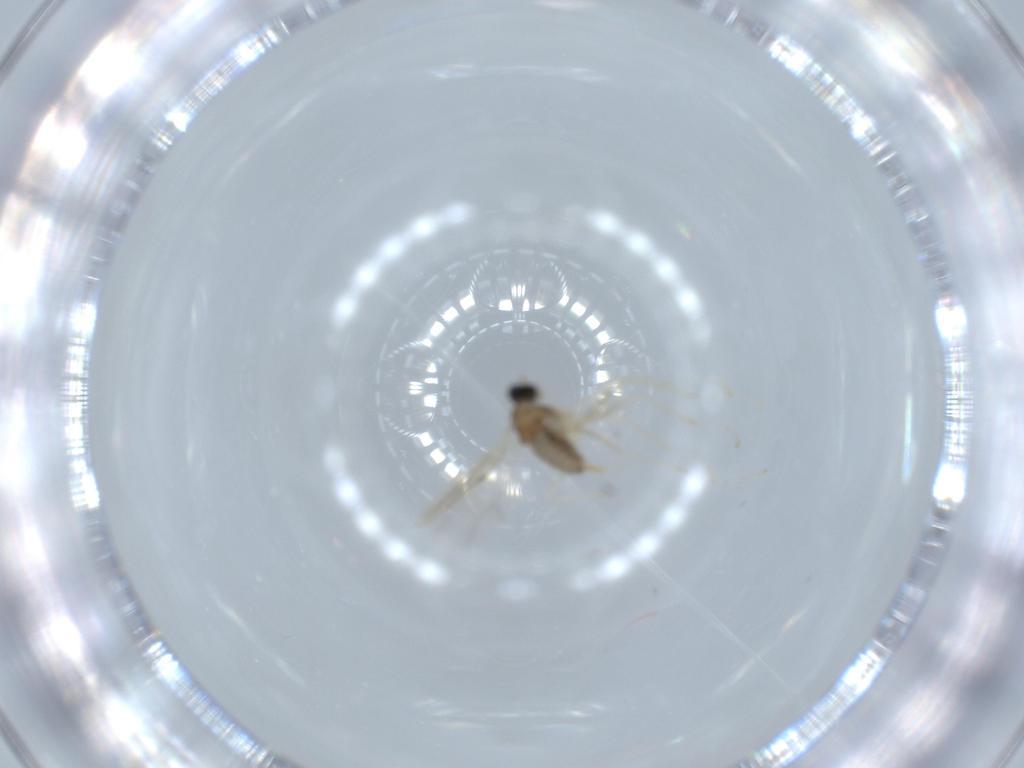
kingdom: Animalia
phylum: Arthropoda
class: Insecta
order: Diptera
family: Cecidomyiidae
